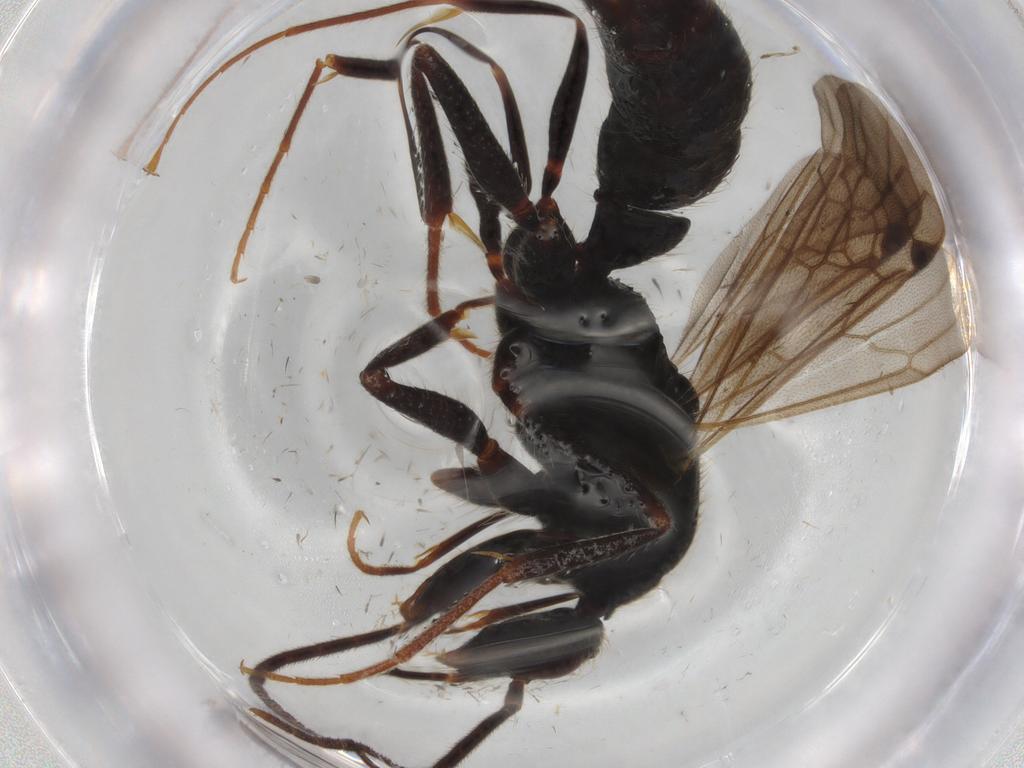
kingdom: Animalia
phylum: Arthropoda
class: Insecta
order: Hymenoptera
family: Formicidae
